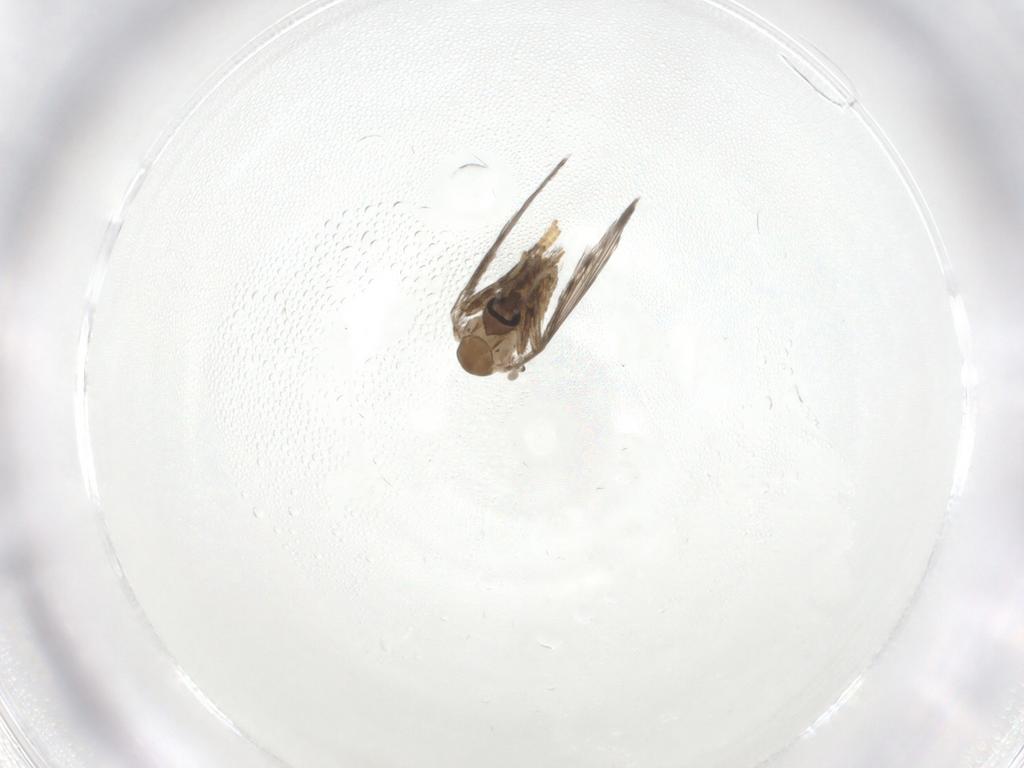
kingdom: Animalia
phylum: Arthropoda
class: Insecta
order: Diptera
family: Psychodidae
